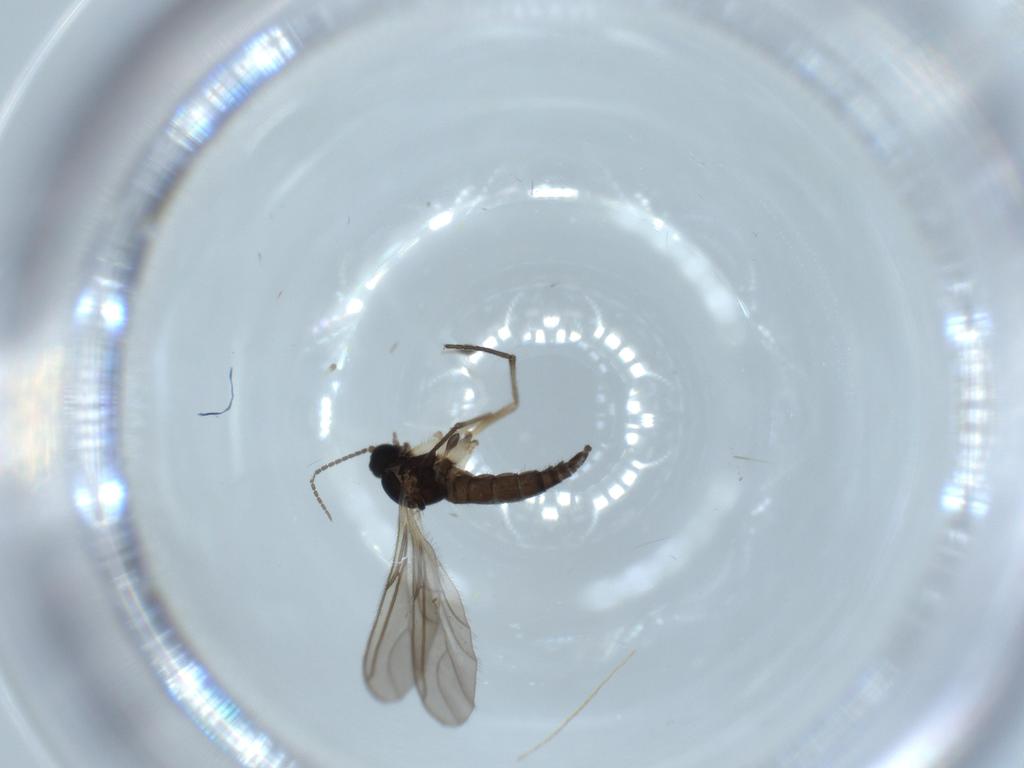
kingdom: Animalia
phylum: Arthropoda
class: Insecta
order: Diptera
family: Sciaridae
